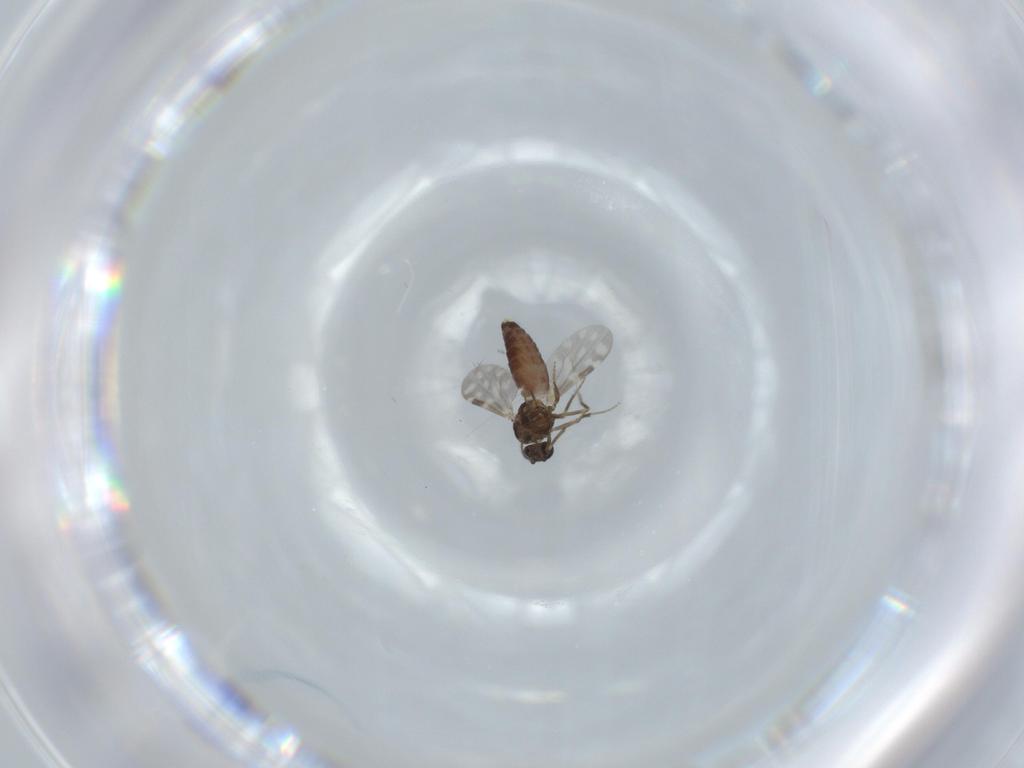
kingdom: Animalia
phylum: Arthropoda
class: Insecta
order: Diptera
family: Ceratopogonidae
